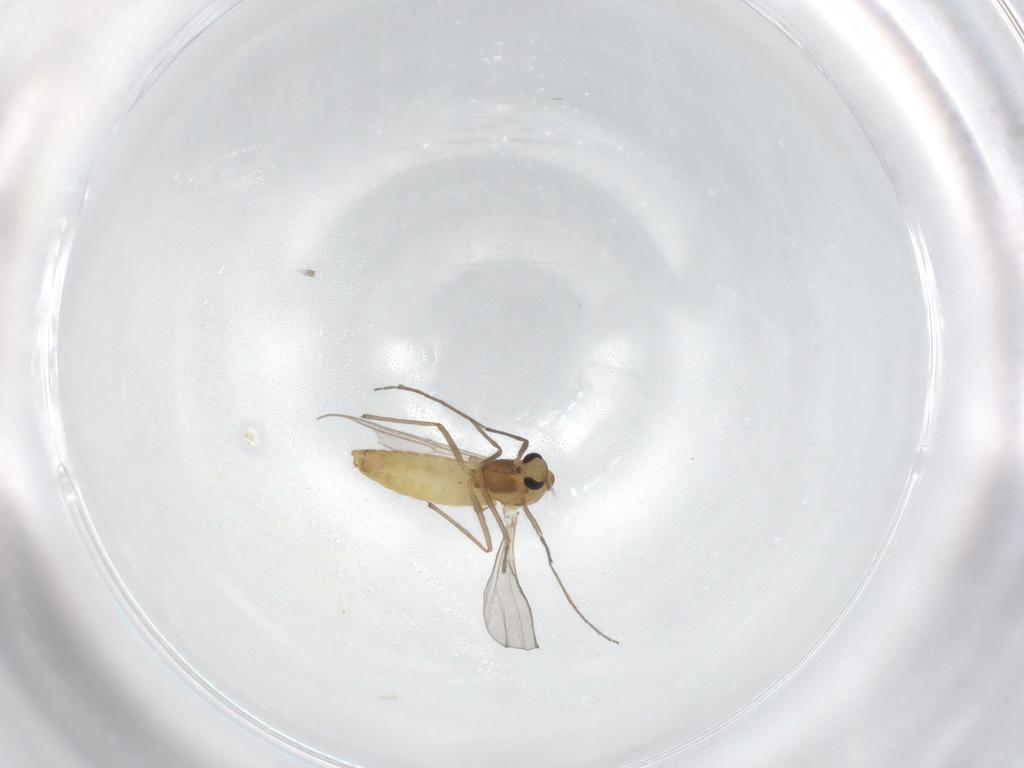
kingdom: Animalia
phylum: Arthropoda
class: Insecta
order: Diptera
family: Chironomidae
